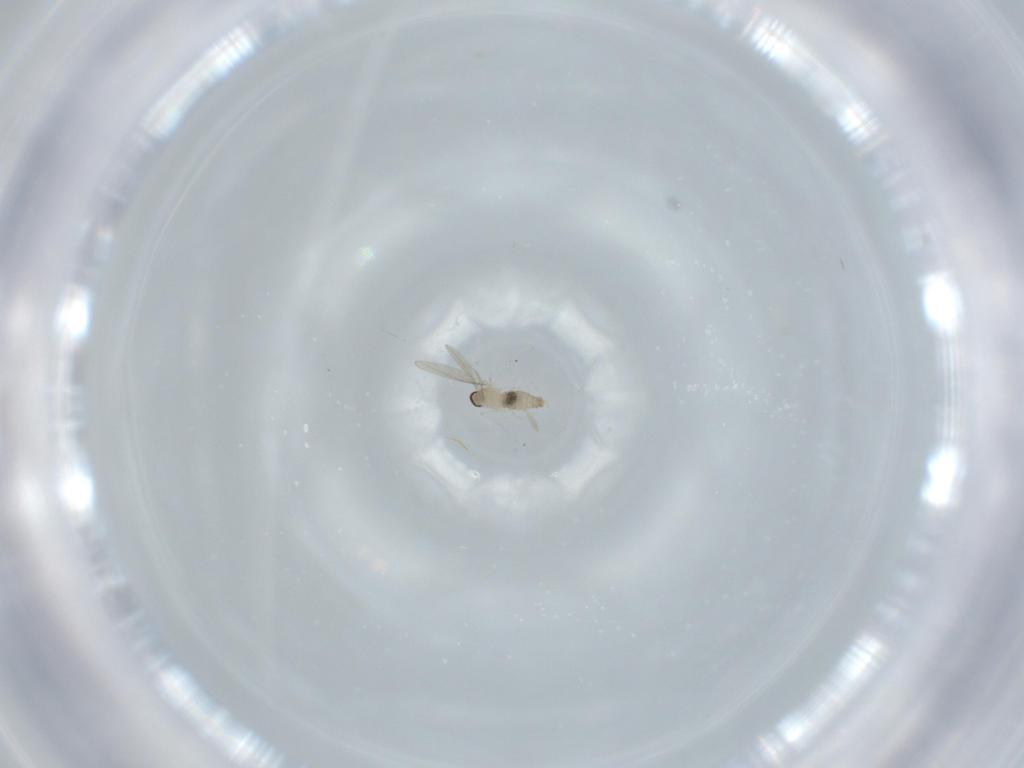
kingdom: Animalia
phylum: Arthropoda
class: Insecta
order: Diptera
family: Cecidomyiidae
